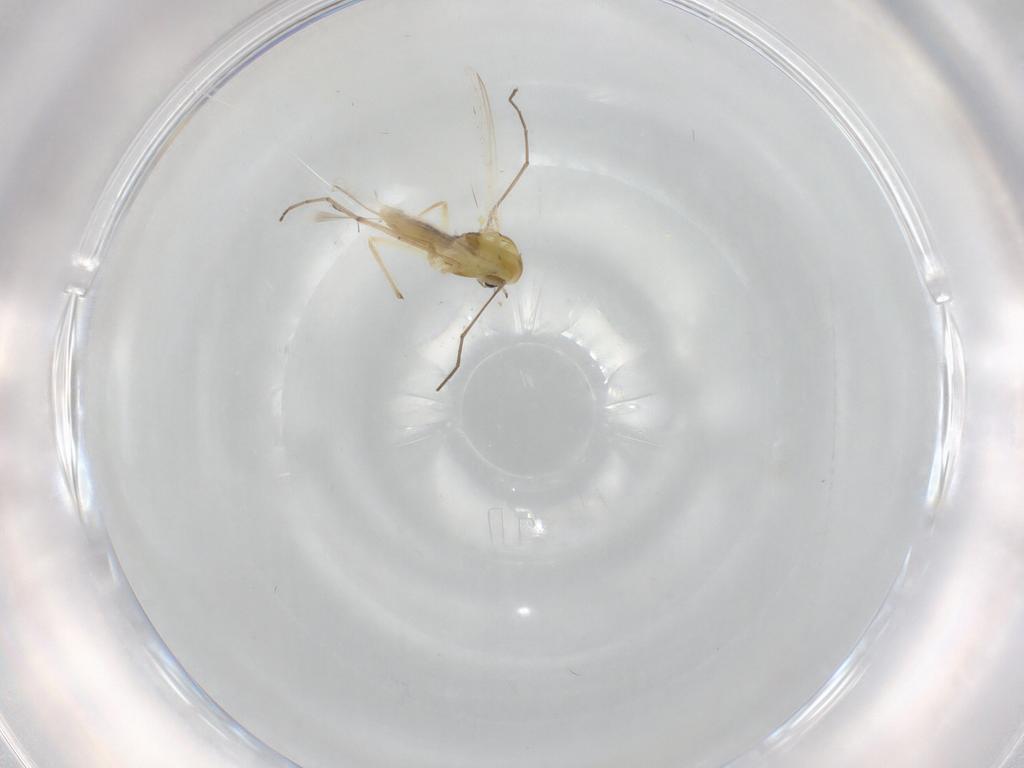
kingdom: Animalia
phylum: Arthropoda
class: Insecta
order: Diptera
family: Chironomidae
